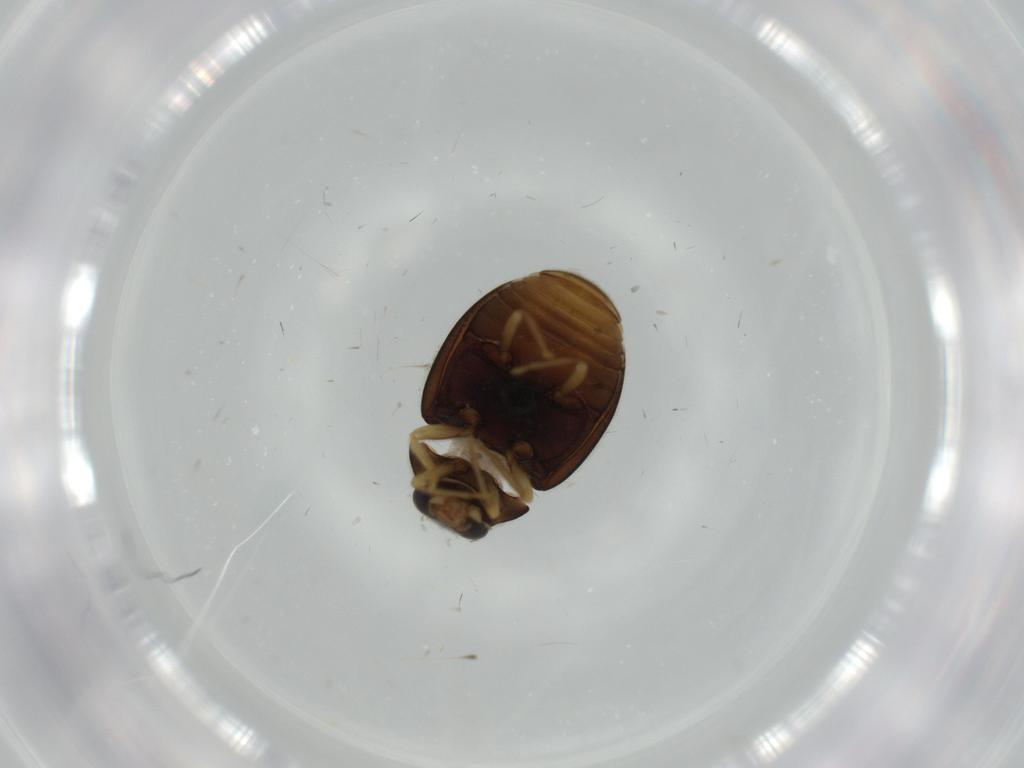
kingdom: Animalia
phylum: Arthropoda
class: Insecta
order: Coleoptera
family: Coccinellidae
